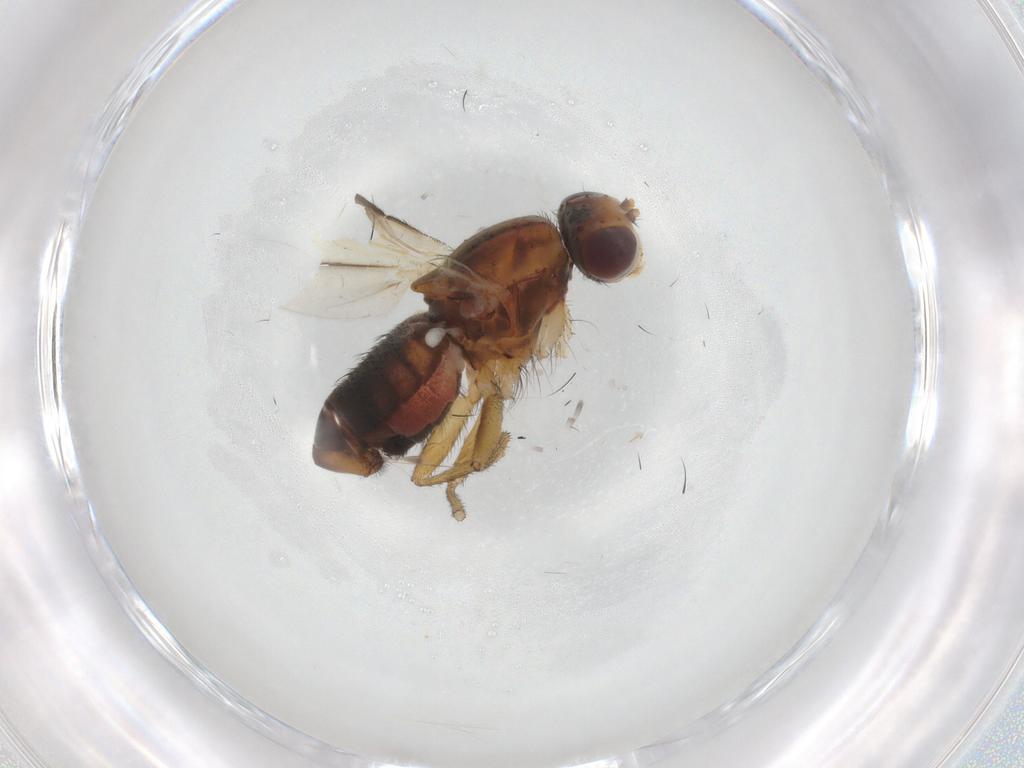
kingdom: Animalia
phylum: Arthropoda
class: Insecta
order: Diptera
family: Heleomyzidae
